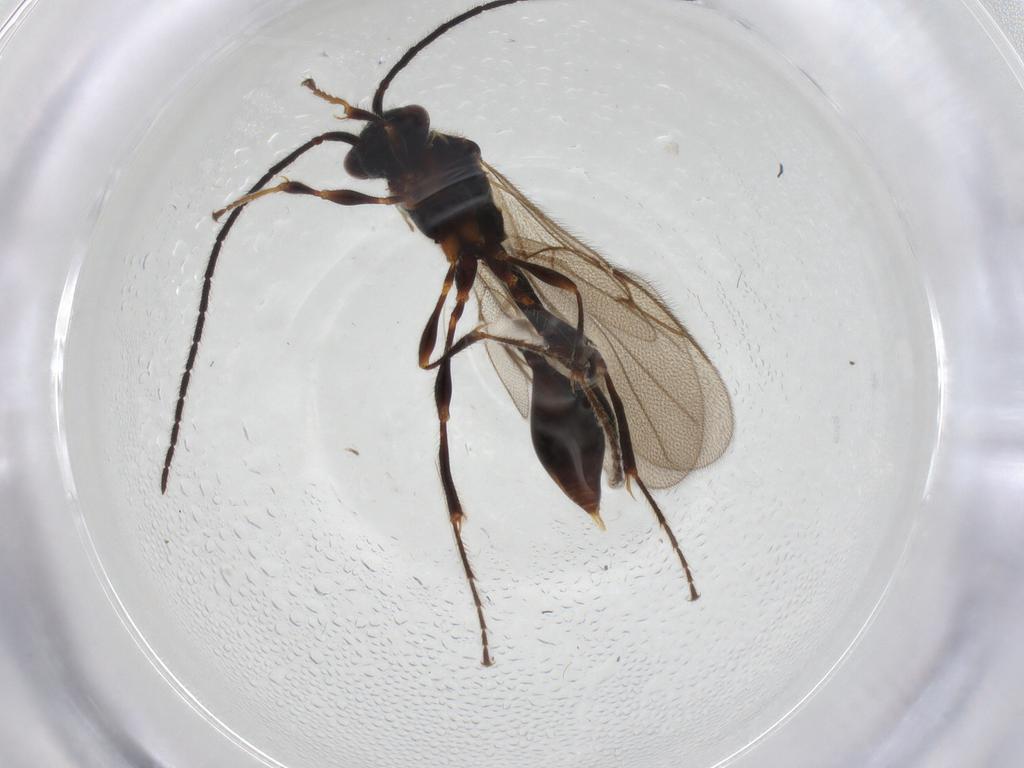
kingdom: Animalia
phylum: Arthropoda
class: Insecta
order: Hymenoptera
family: Diapriidae
